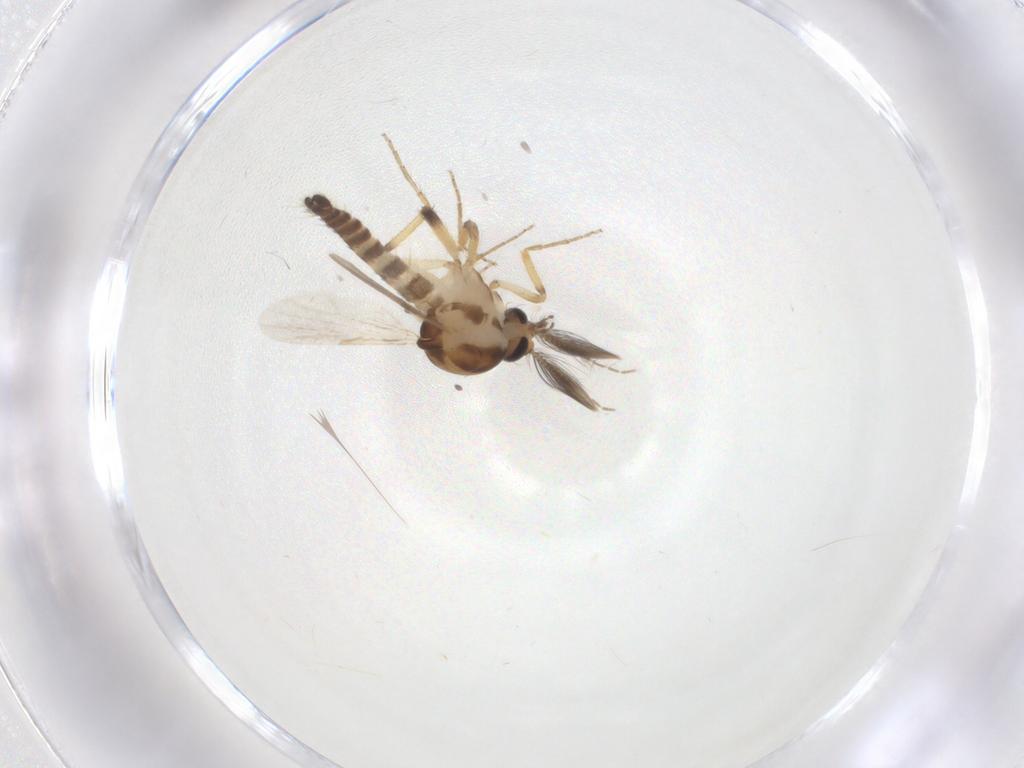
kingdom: Animalia
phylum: Arthropoda
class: Insecta
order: Diptera
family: Ceratopogonidae
